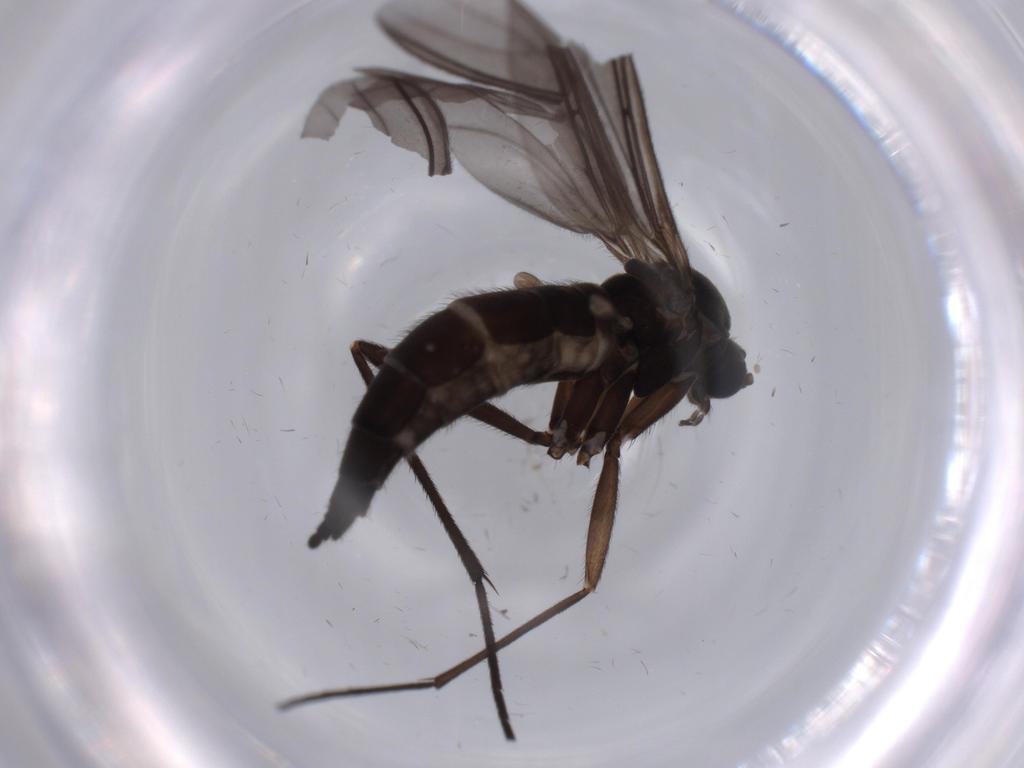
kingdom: Animalia
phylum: Arthropoda
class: Insecta
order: Diptera
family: Sciaridae
